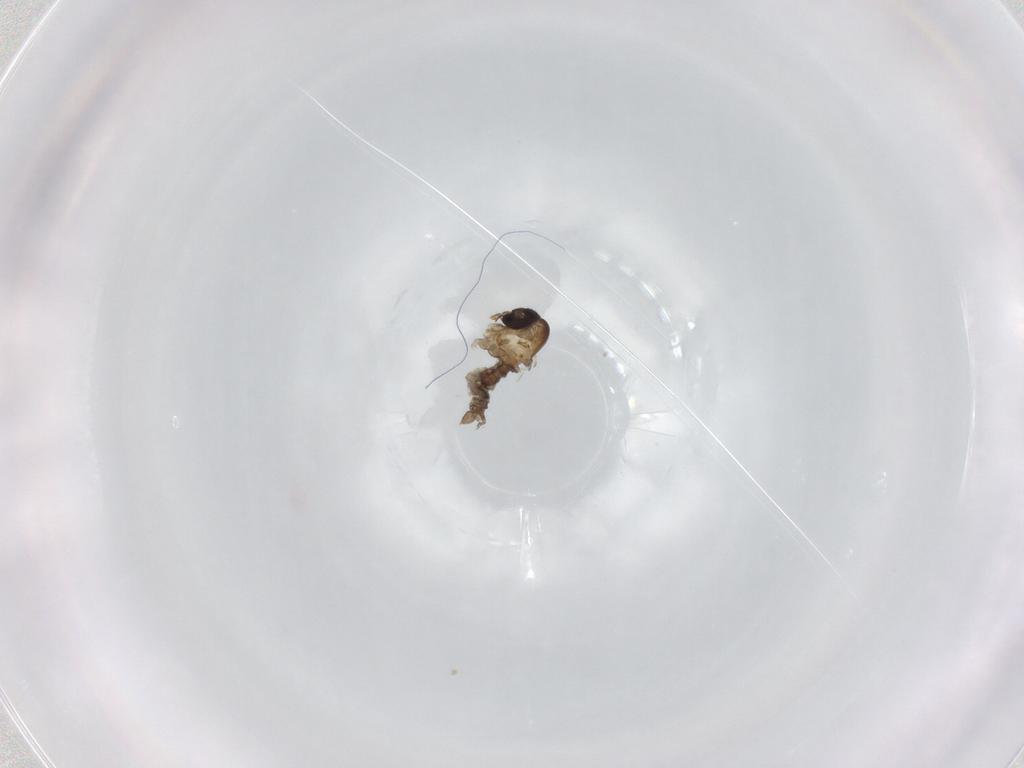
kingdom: Animalia
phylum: Arthropoda
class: Insecta
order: Diptera
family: Psychodidae
